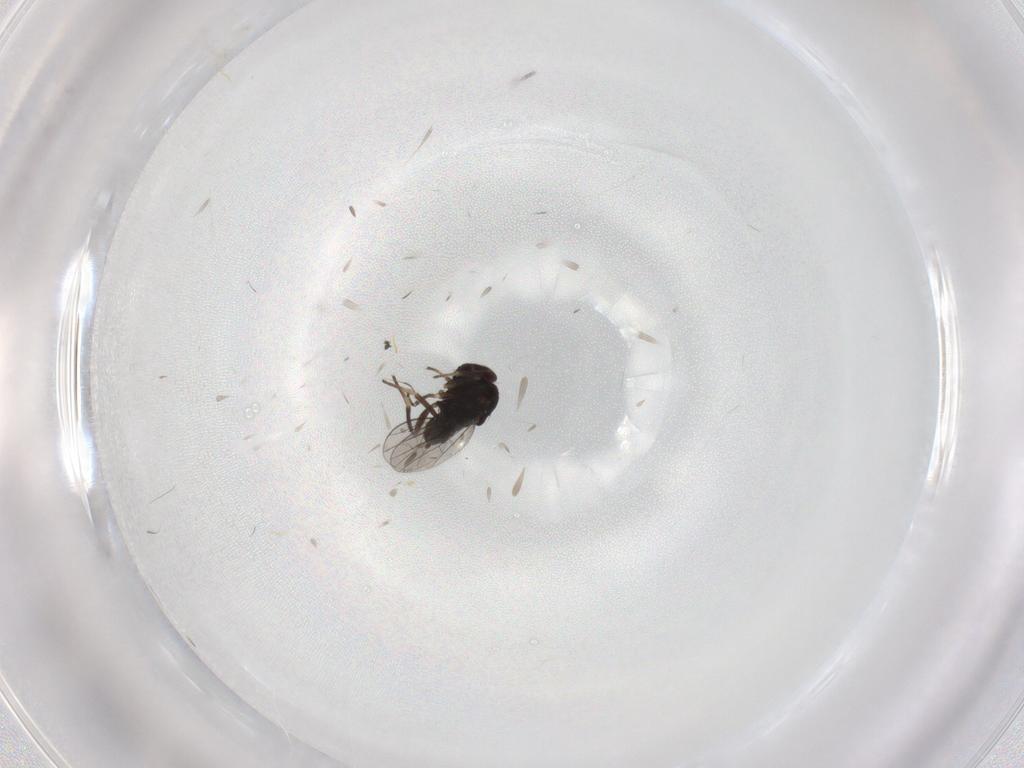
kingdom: Animalia
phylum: Arthropoda
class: Insecta
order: Diptera
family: Dolichopodidae
